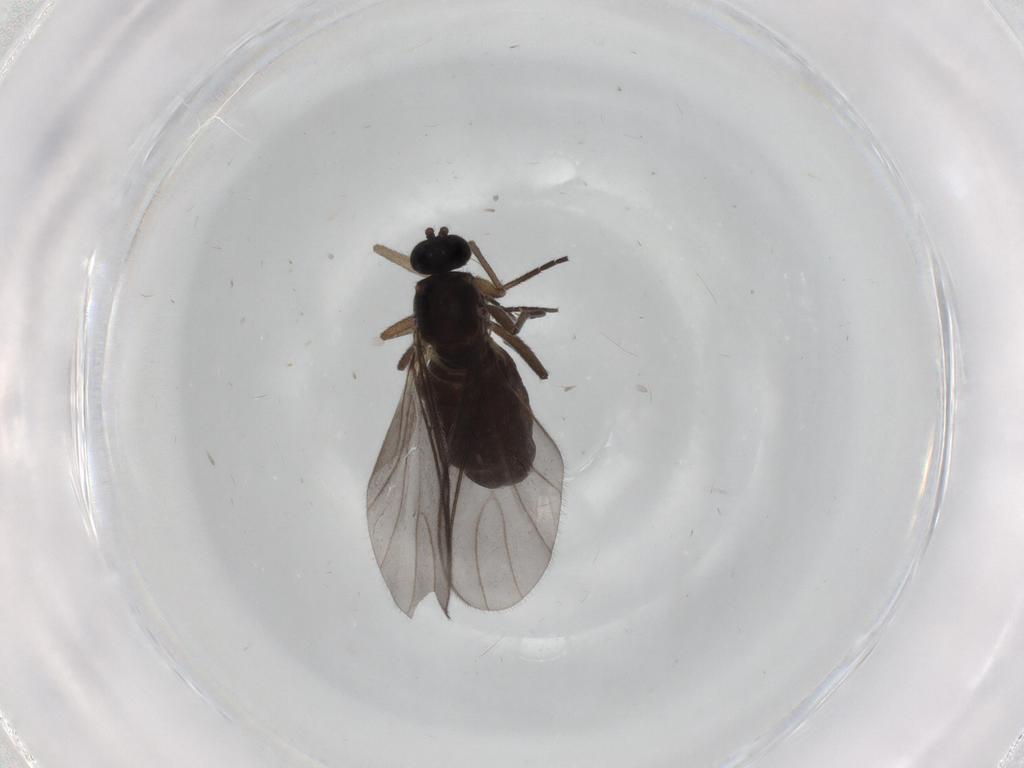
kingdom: Animalia
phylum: Arthropoda
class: Insecta
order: Diptera
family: Sciaridae
